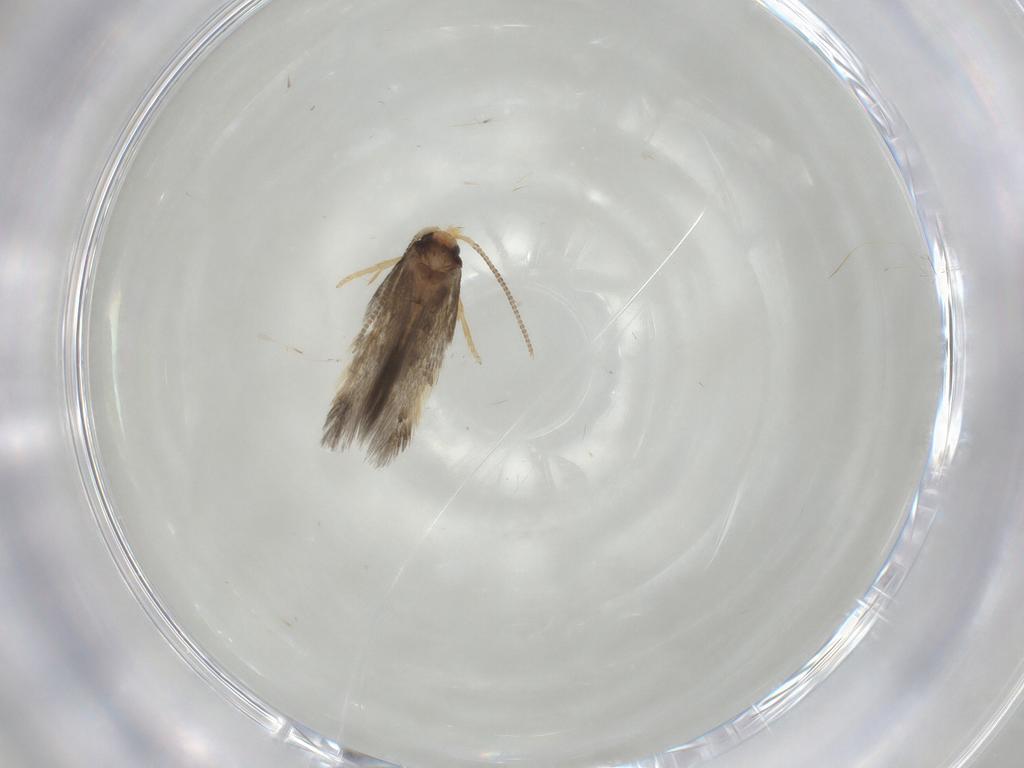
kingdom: Animalia
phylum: Arthropoda
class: Insecta
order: Lepidoptera
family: Nepticulidae
